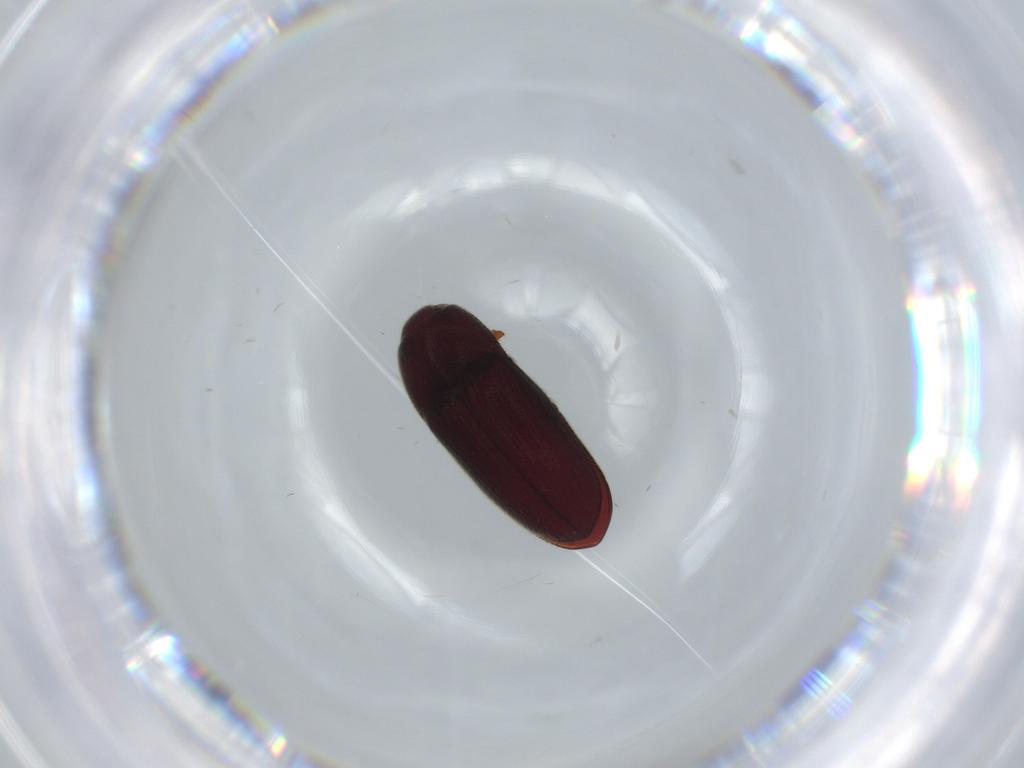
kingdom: Animalia
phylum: Arthropoda
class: Insecta
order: Coleoptera
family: Throscidae
